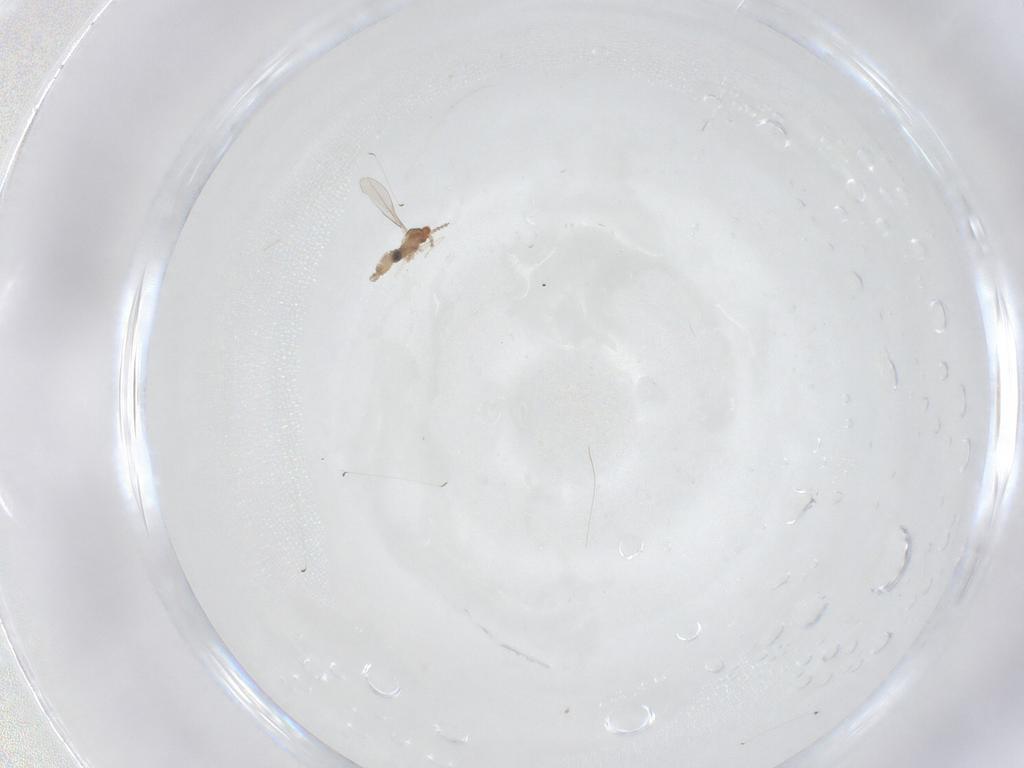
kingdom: Animalia
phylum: Arthropoda
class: Insecta
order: Diptera
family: Cecidomyiidae
